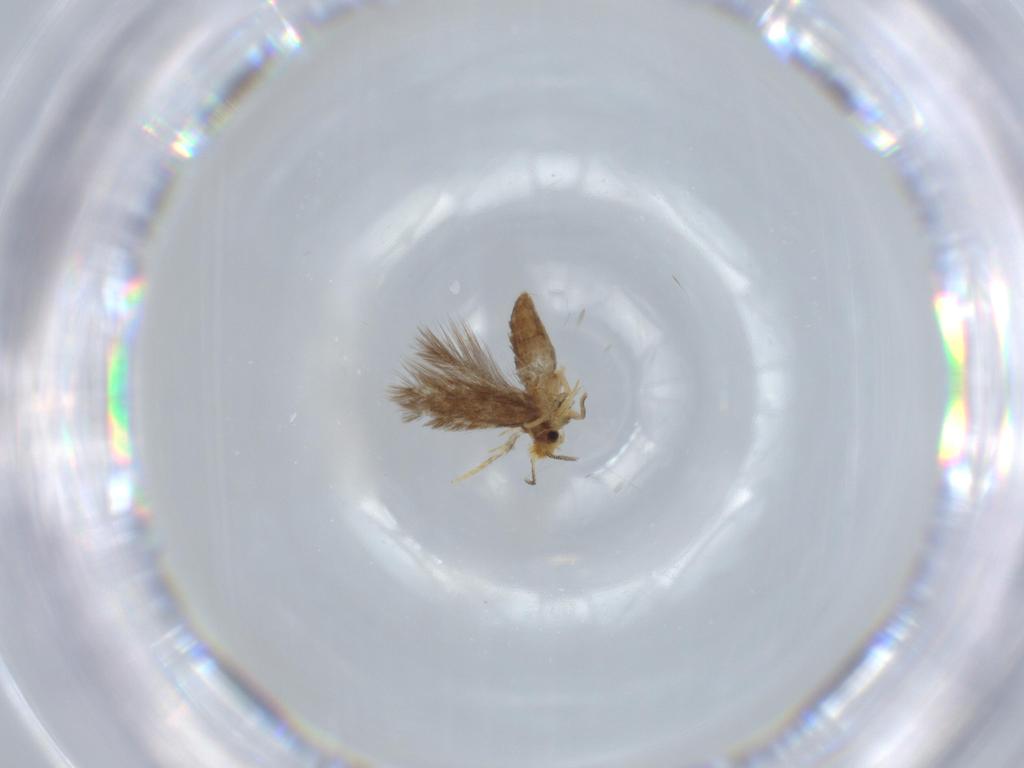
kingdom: Animalia
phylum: Arthropoda
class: Insecta
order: Lepidoptera
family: Nepticulidae
